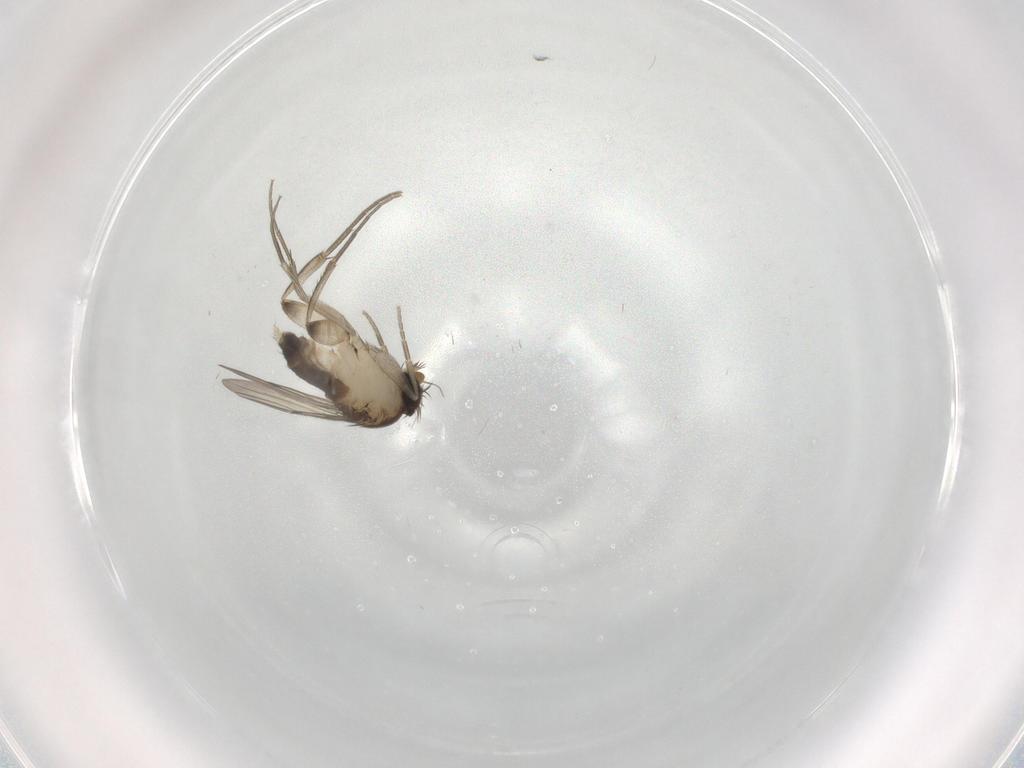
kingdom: Animalia
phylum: Arthropoda
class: Insecta
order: Diptera
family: Phoridae
